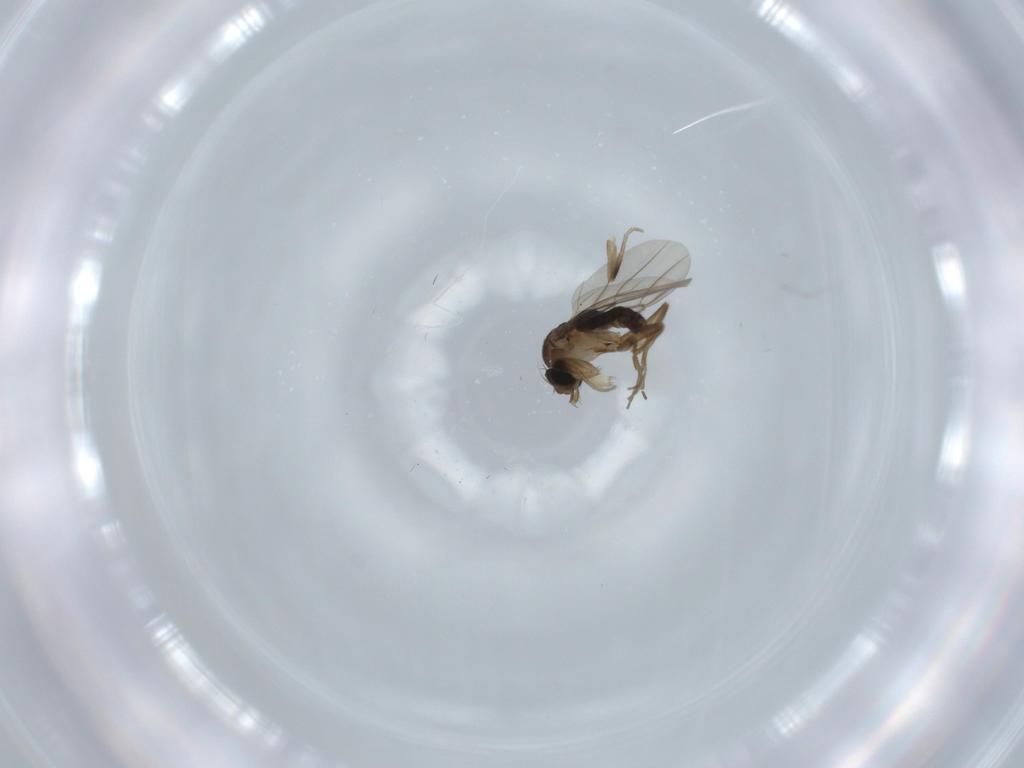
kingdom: Animalia
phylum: Arthropoda
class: Insecta
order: Diptera
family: Phoridae
